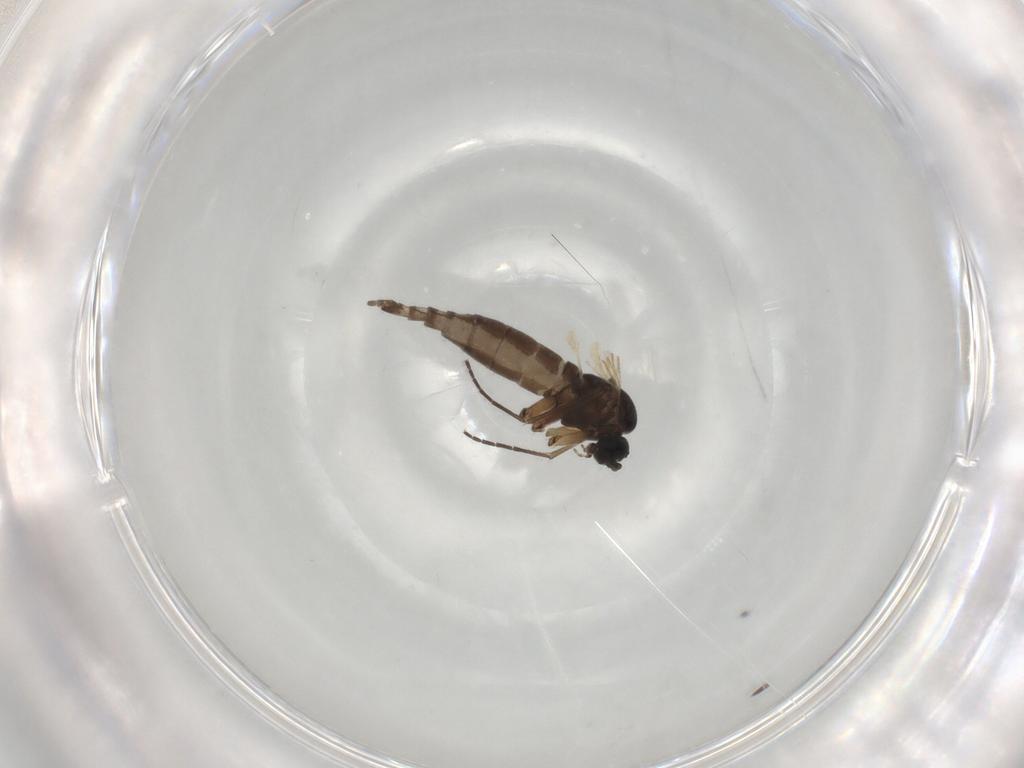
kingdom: Animalia
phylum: Arthropoda
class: Insecta
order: Diptera
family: Sciaridae
